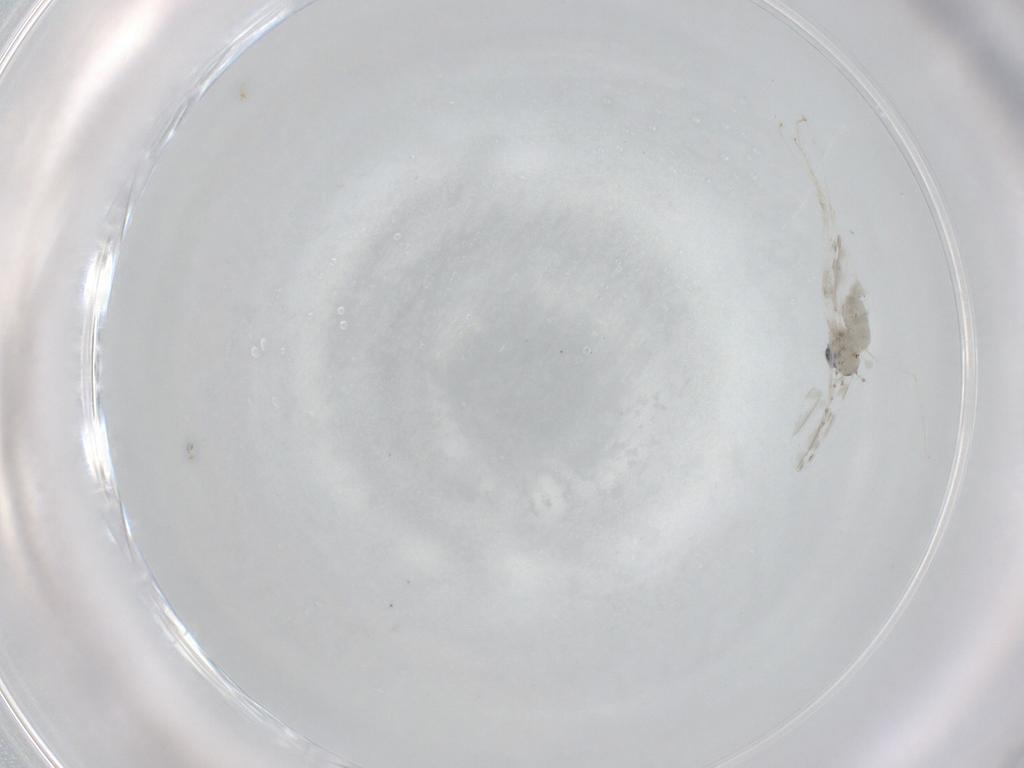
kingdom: Animalia
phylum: Arthropoda
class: Insecta
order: Diptera
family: Cecidomyiidae
